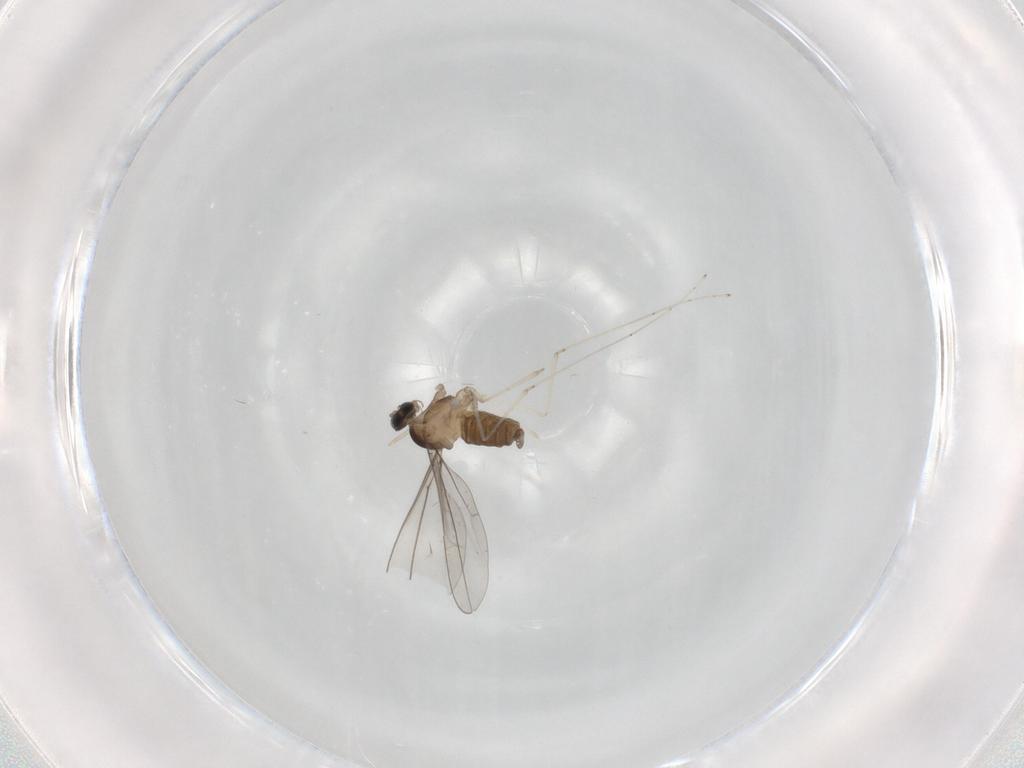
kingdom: Animalia
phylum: Arthropoda
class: Insecta
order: Diptera
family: Cecidomyiidae
